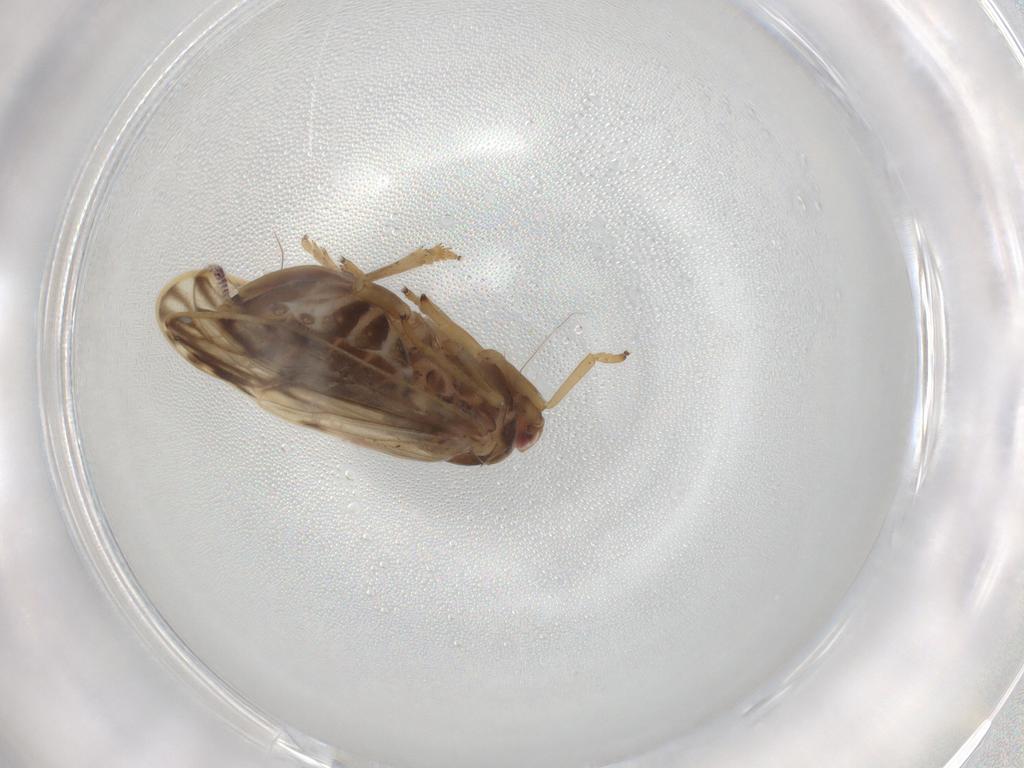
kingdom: Animalia
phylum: Arthropoda
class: Insecta
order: Hemiptera
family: Delphacidae
